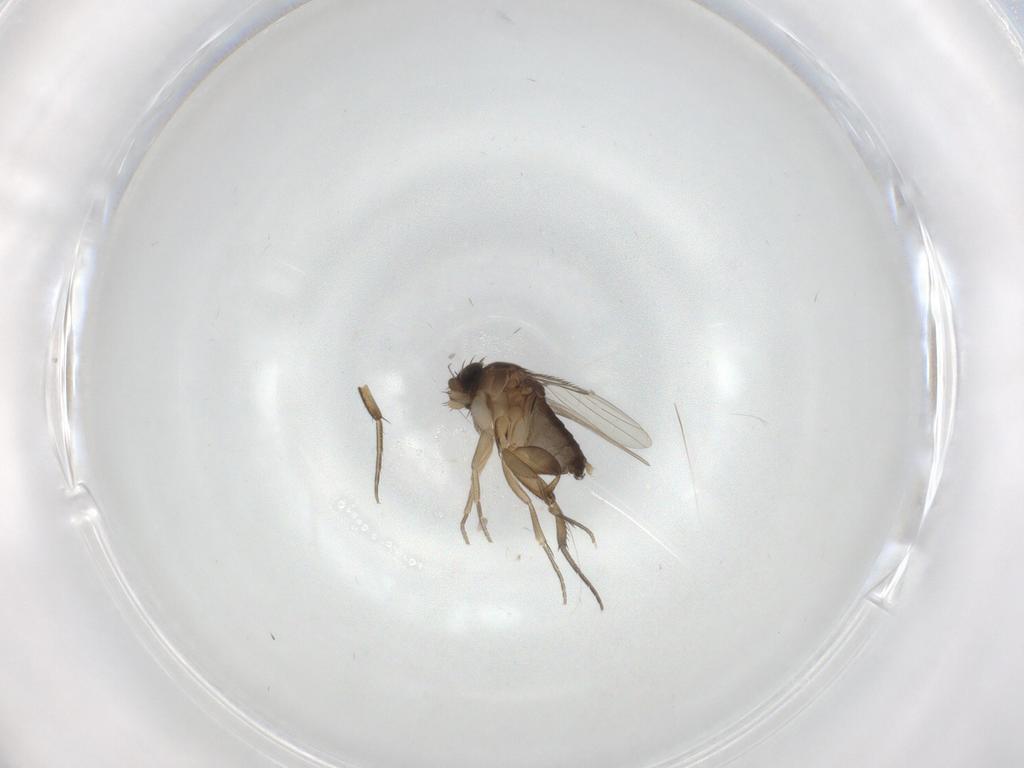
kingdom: Animalia
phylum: Arthropoda
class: Insecta
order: Diptera
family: Phoridae
